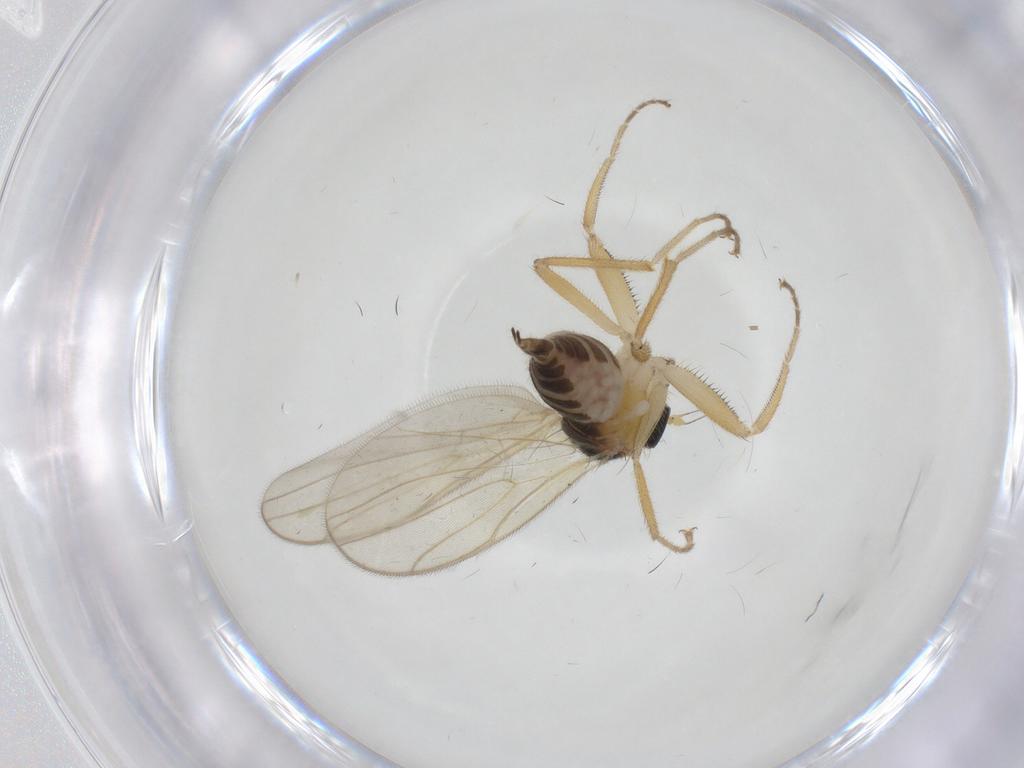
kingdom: Animalia
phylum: Arthropoda
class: Insecta
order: Diptera
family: Hybotidae
